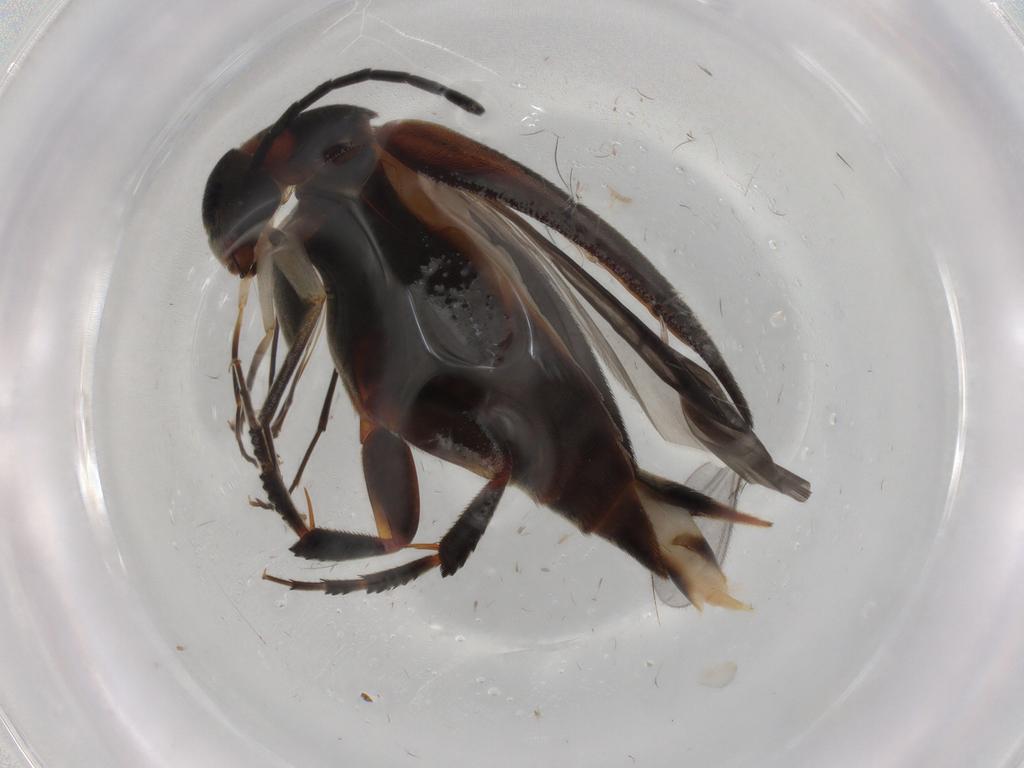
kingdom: Animalia
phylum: Arthropoda
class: Insecta
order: Coleoptera
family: Mordellidae
